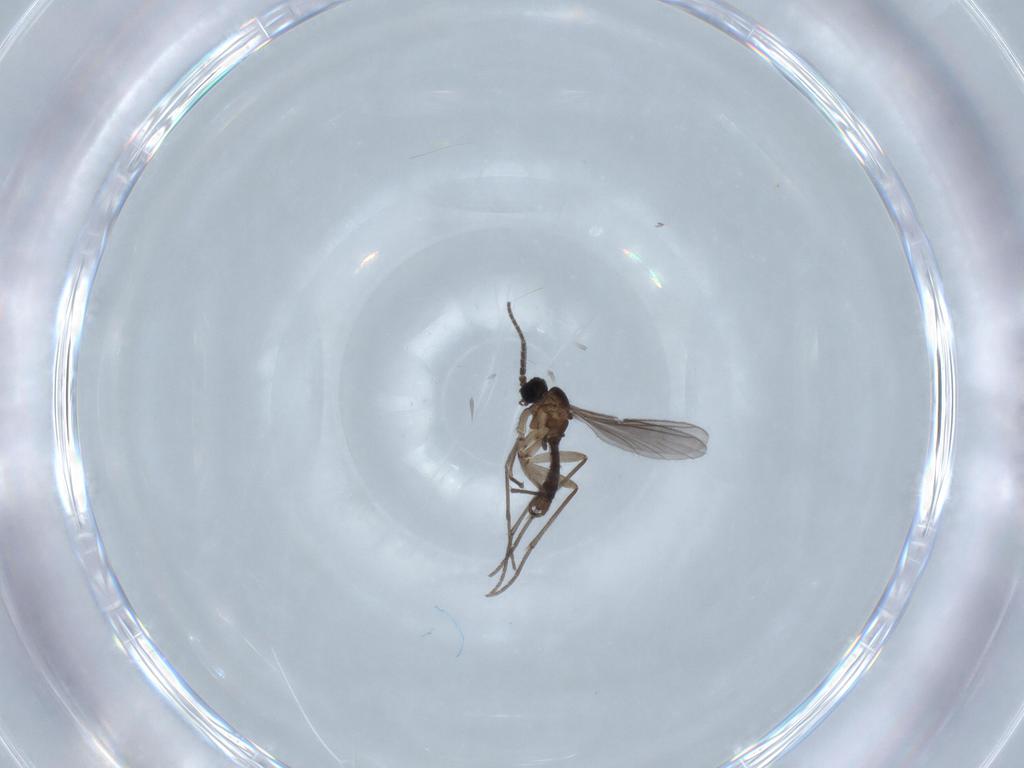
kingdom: Animalia
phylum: Arthropoda
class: Insecta
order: Diptera
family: Sciaridae
